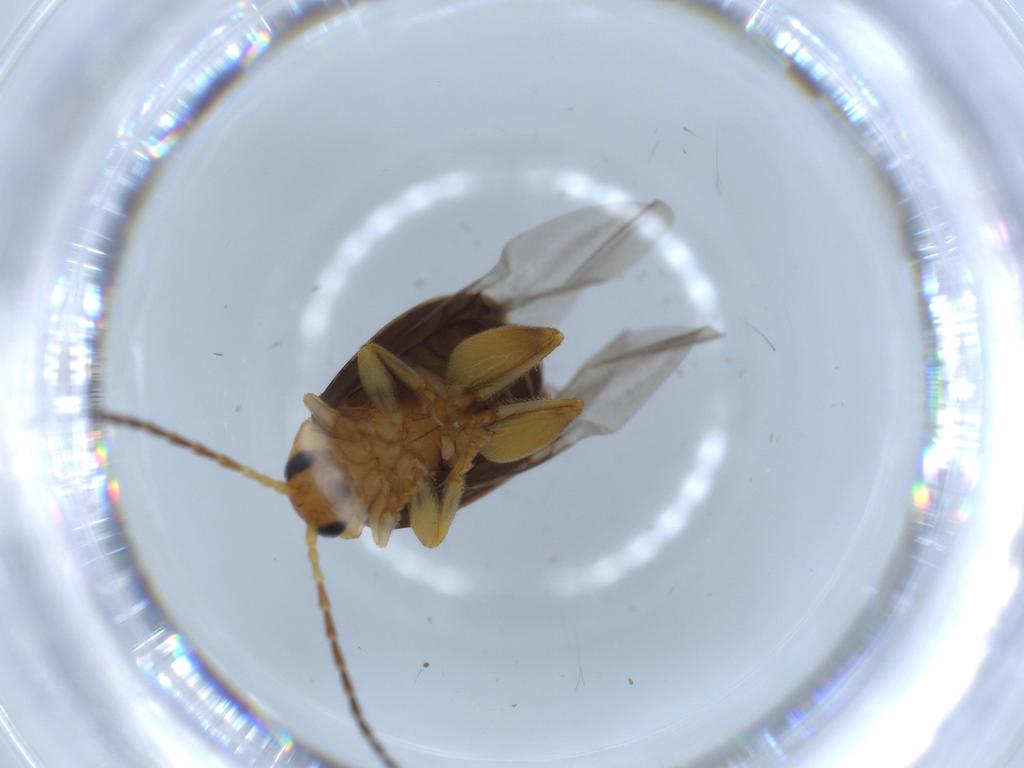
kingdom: Animalia
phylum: Arthropoda
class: Insecta
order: Coleoptera
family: Chrysomelidae
